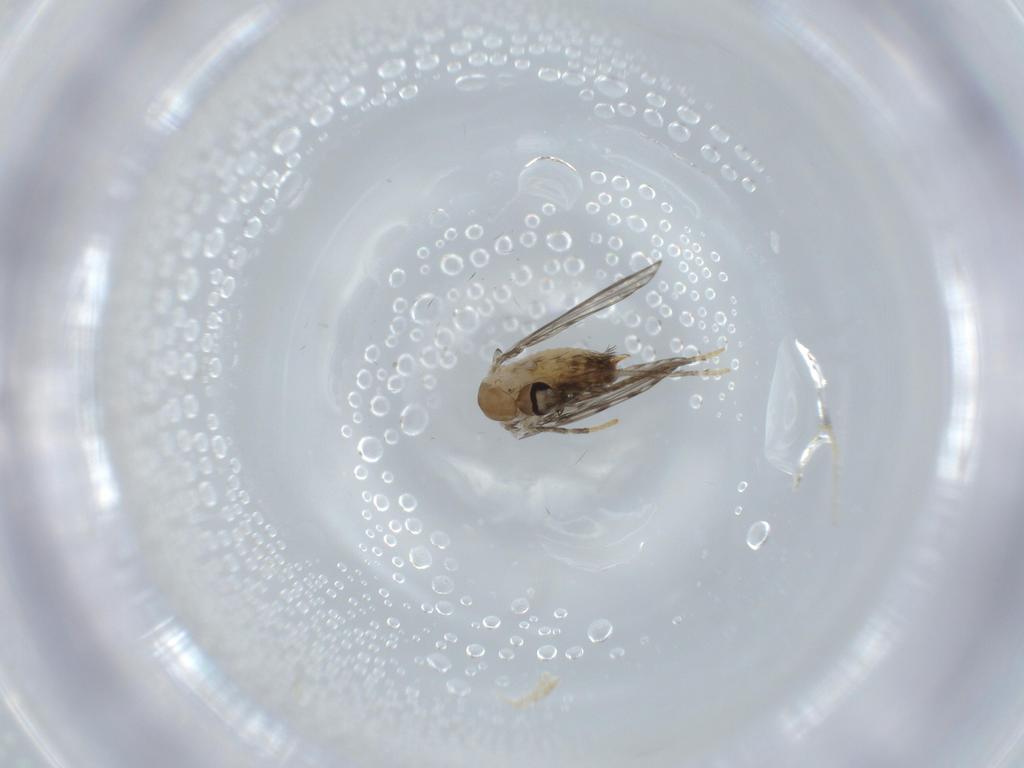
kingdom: Animalia
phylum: Arthropoda
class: Insecta
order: Diptera
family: Psychodidae
